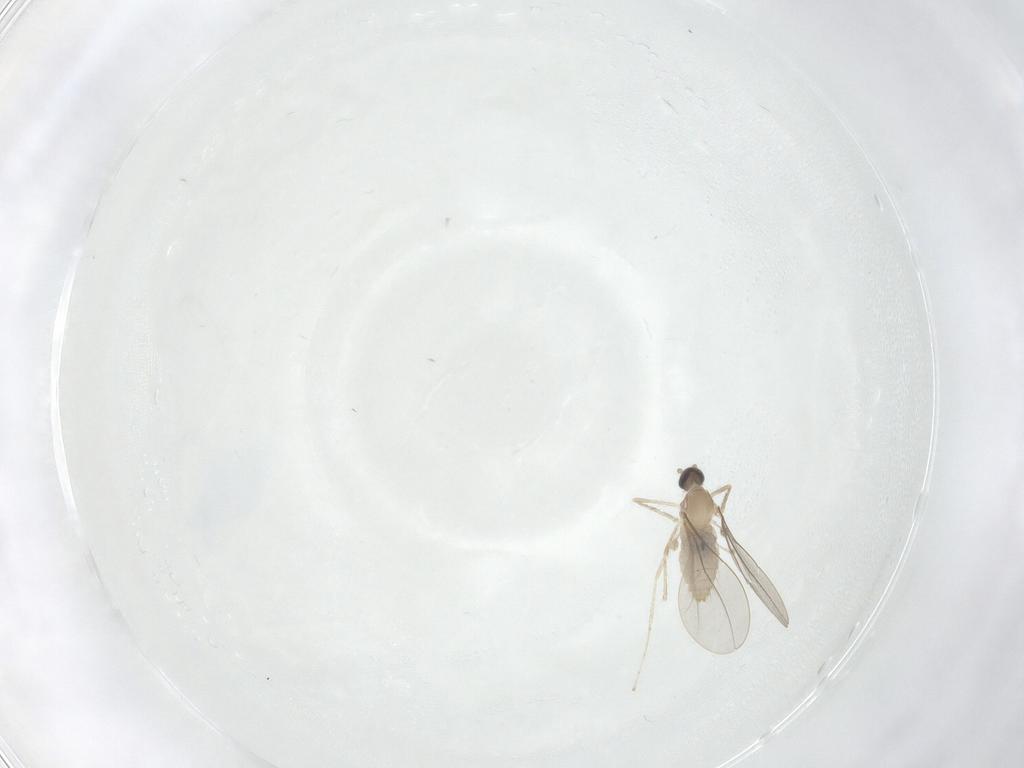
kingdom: Animalia
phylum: Arthropoda
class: Insecta
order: Diptera
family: Cecidomyiidae
